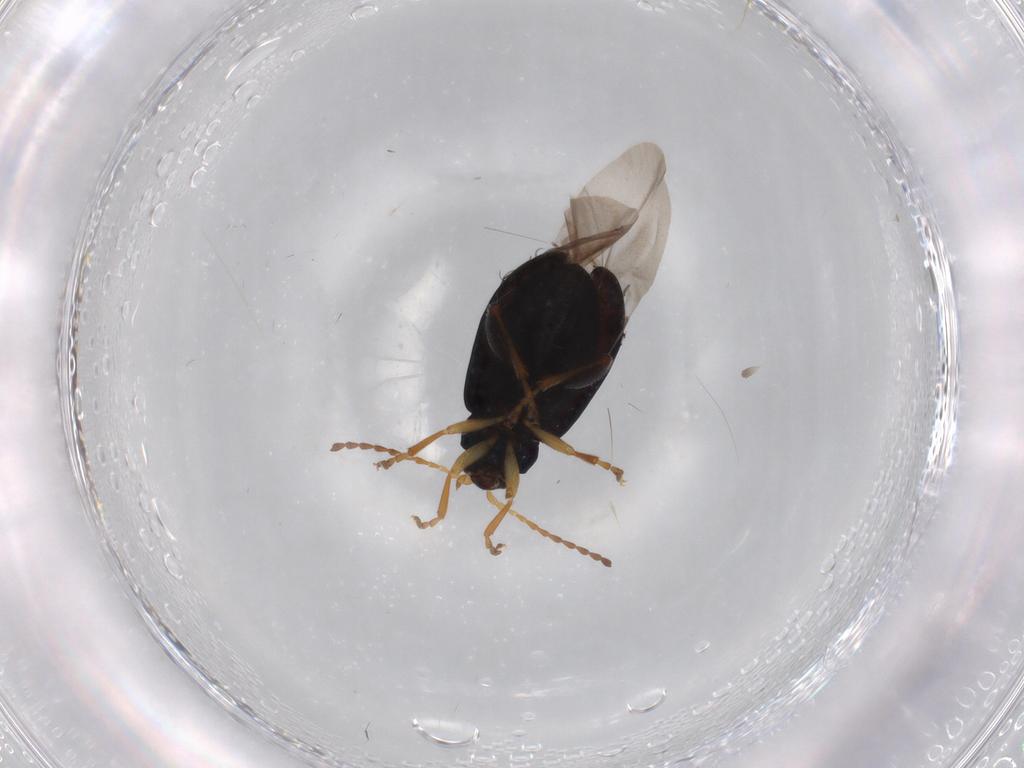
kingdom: Animalia
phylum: Arthropoda
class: Insecta
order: Coleoptera
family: Chrysomelidae
